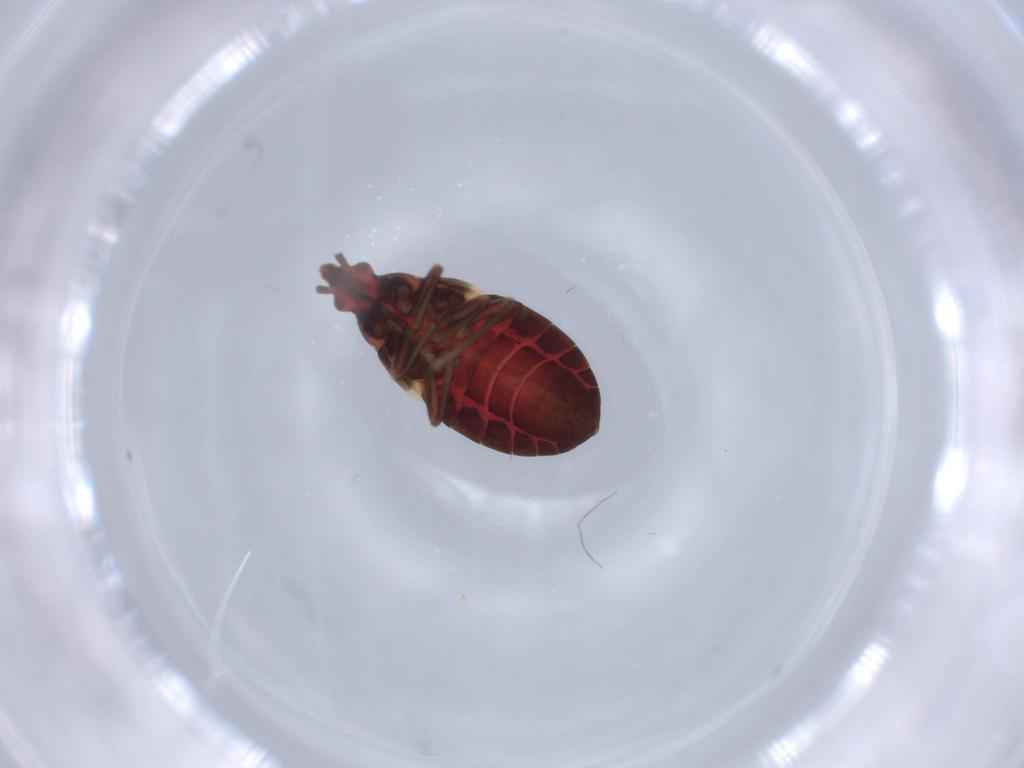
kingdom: Animalia
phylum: Arthropoda
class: Insecta
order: Hemiptera
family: Anthocoridae
